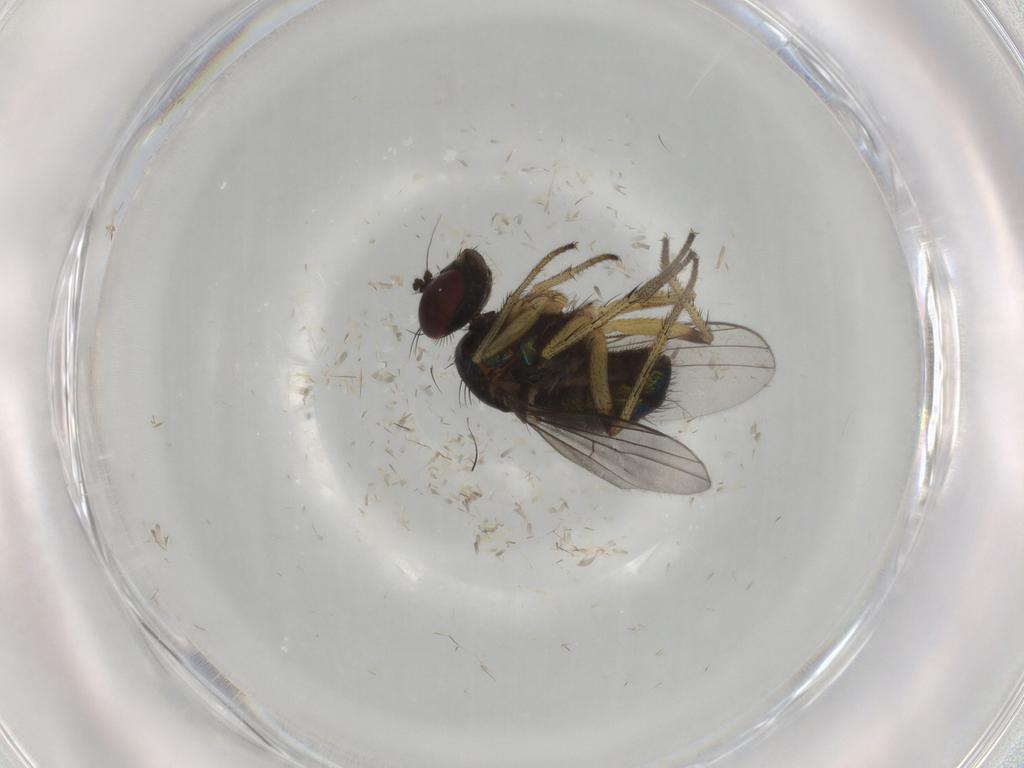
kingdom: Animalia
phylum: Arthropoda
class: Insecta
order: Diptera
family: Dolichopodidae
